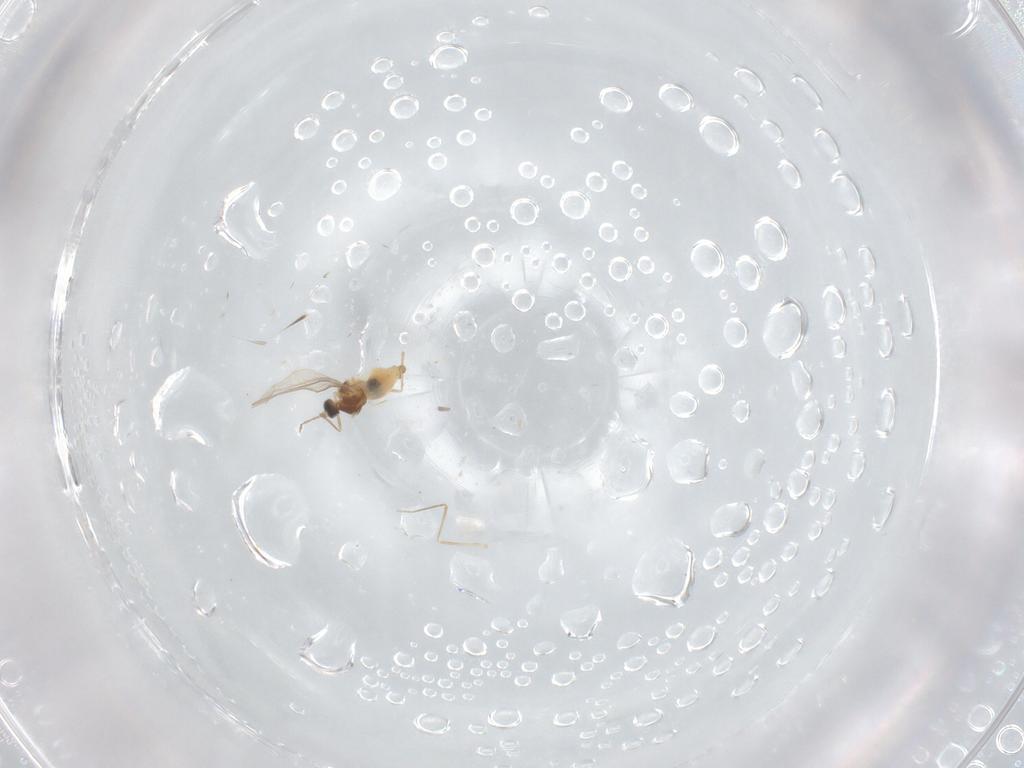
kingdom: Animalia
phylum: Arthropoda
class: Insecta
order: Diptera
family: Cecidomyiidae
